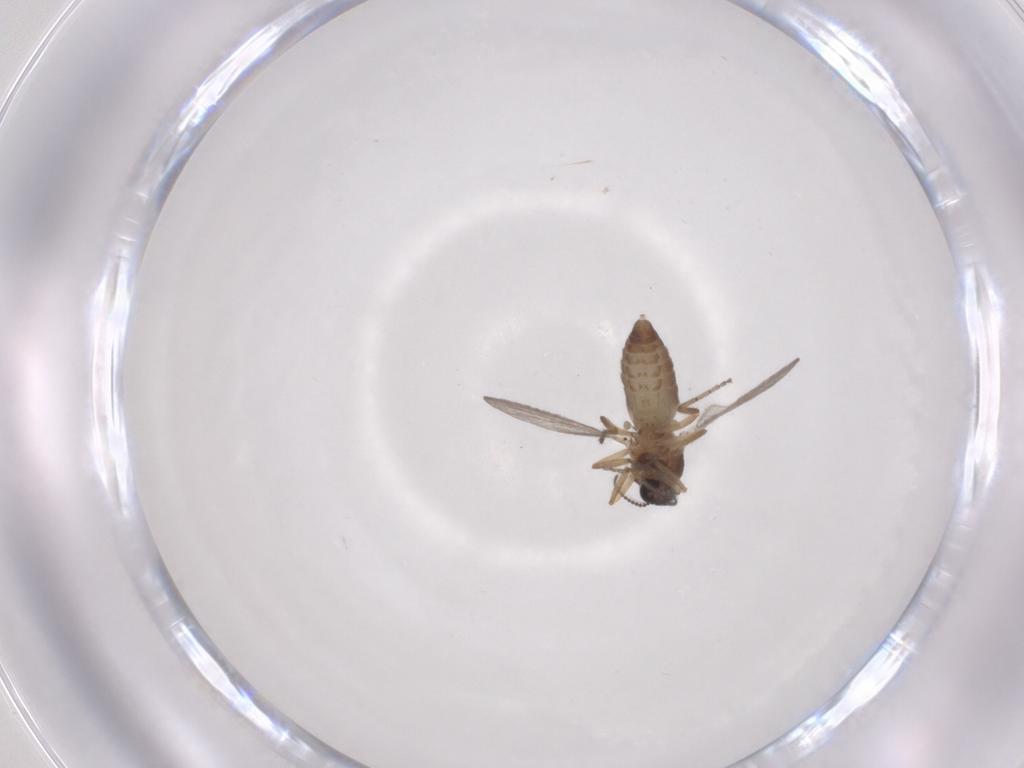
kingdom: Animalia
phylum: Arthropoda
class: Insecta
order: Diptera
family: Ceratopogonidae
